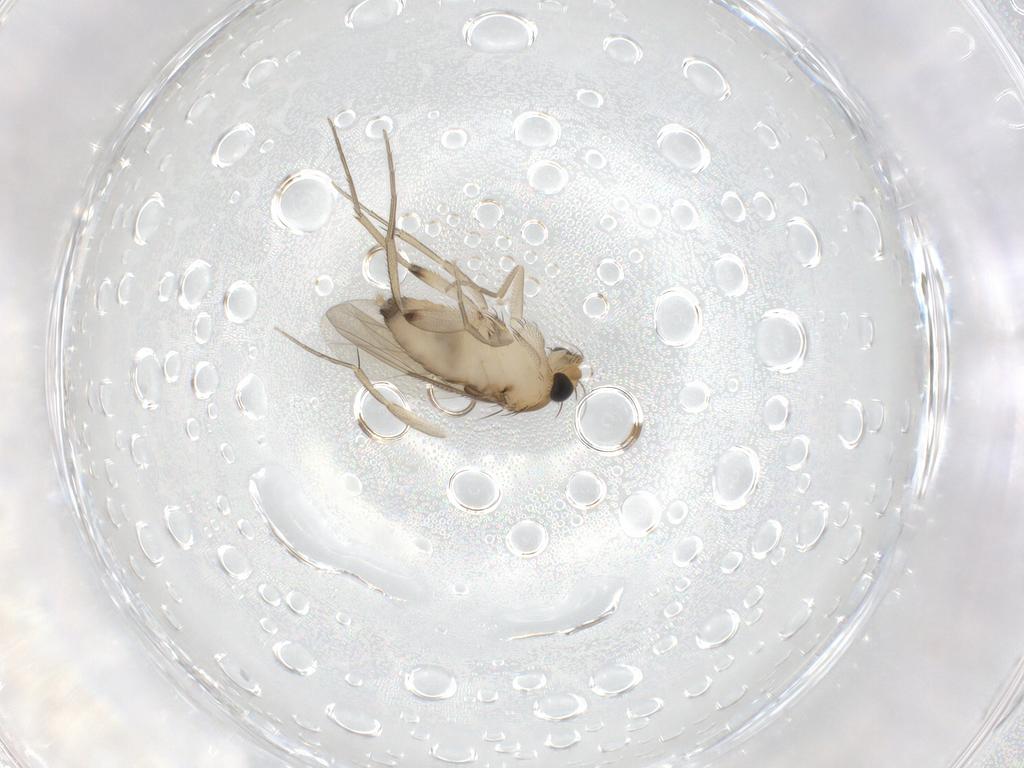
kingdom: Animalia
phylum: Arthropoda
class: Insecta
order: Diptera
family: Phoridae
